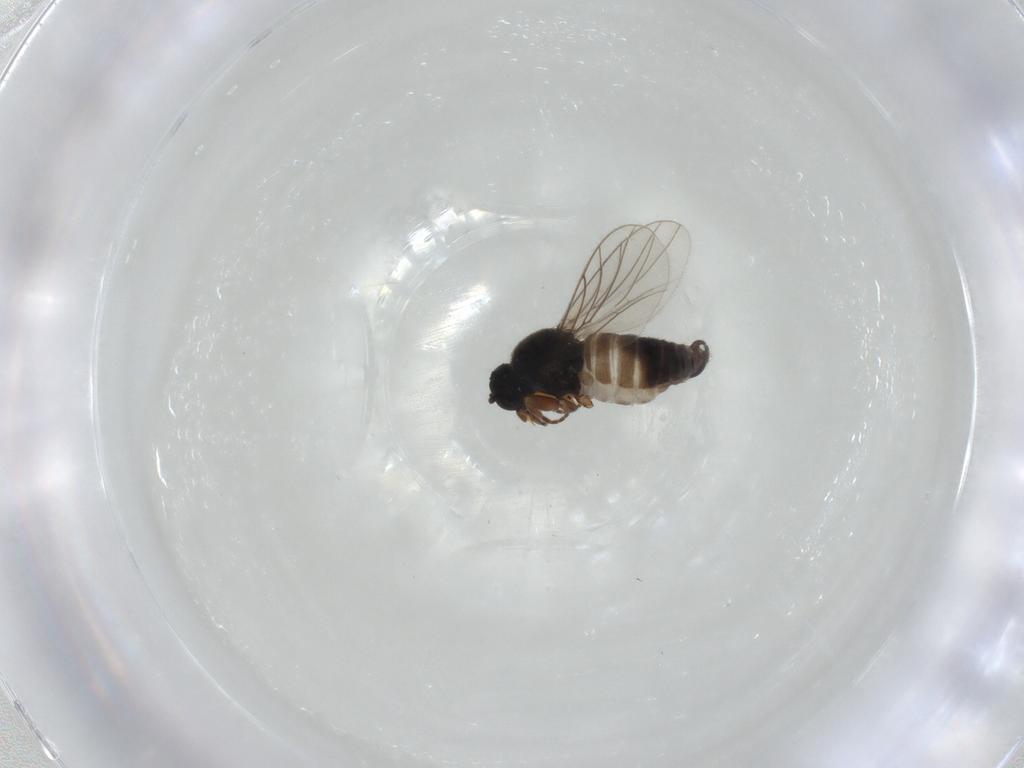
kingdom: Animalia
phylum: Arthropoda
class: Insecta
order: Diptera
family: Hybotidae
